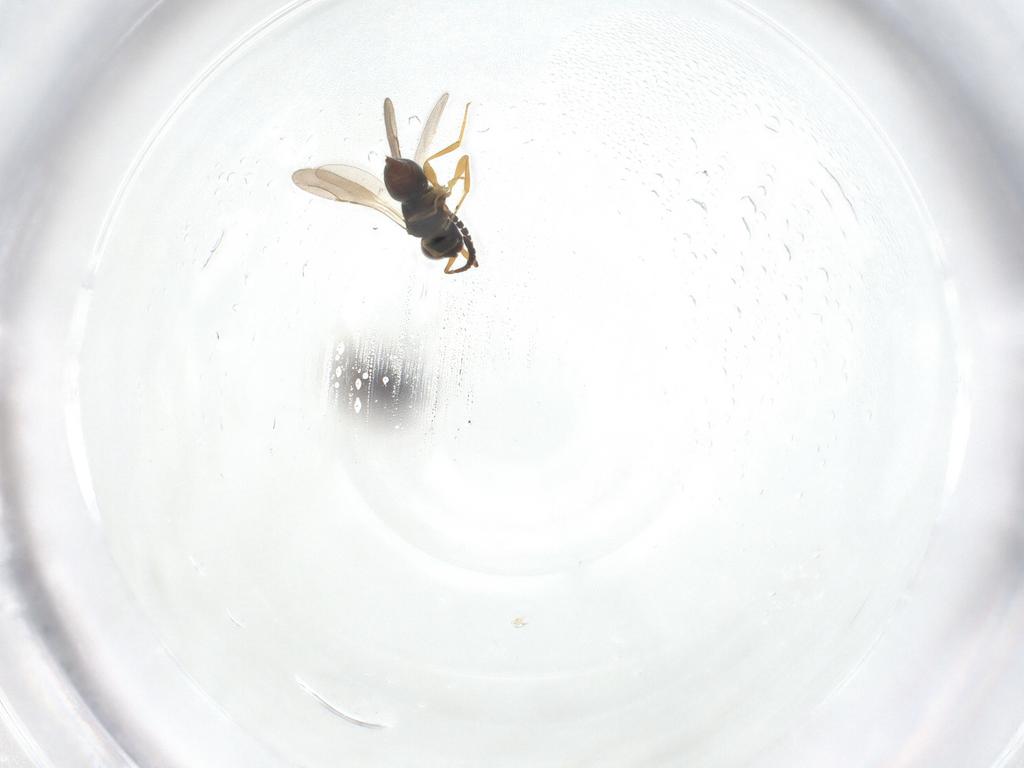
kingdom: Animalia
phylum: Arthropoda
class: Insecta
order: Hymenoptera
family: Ceraphronidae
